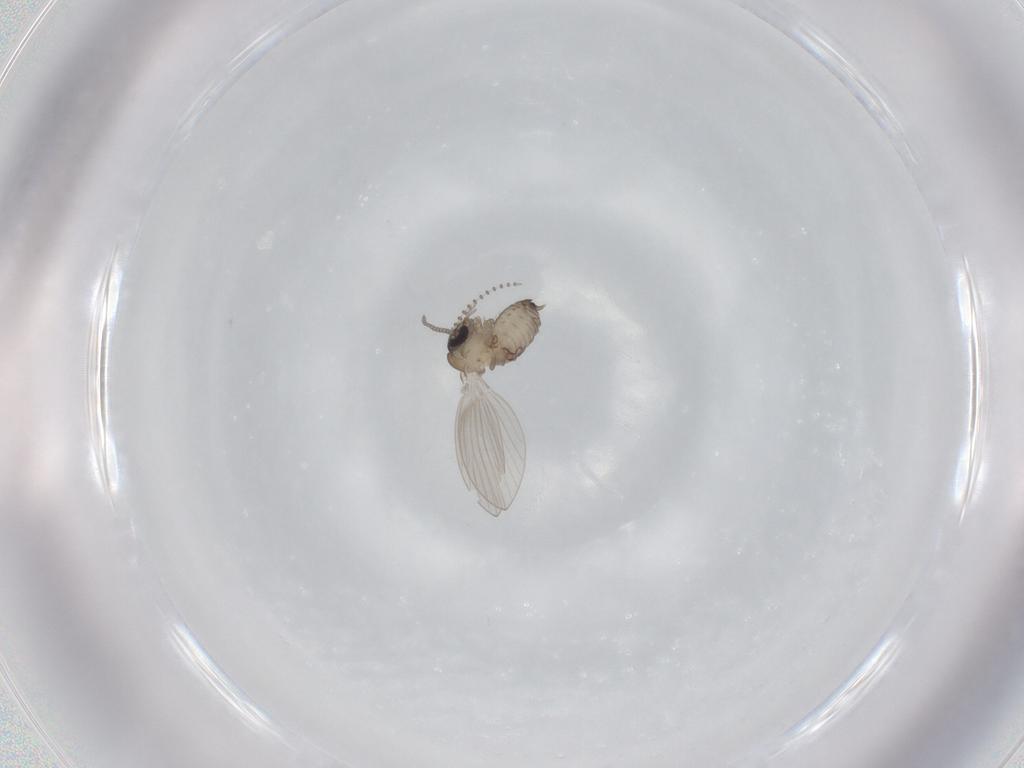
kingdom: Animalia
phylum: Arthropoda
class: Insecta
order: Diptera
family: Psychodidae
